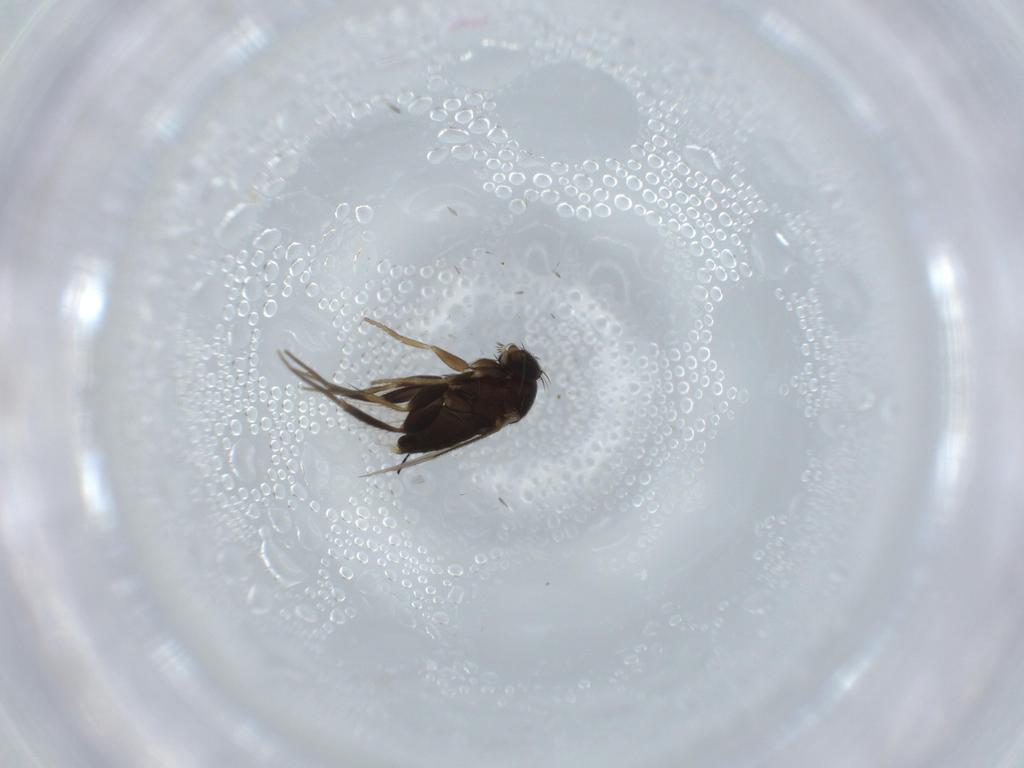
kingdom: Animalia
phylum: Arthropoda
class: Insecta
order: Diptera
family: Phoridae
